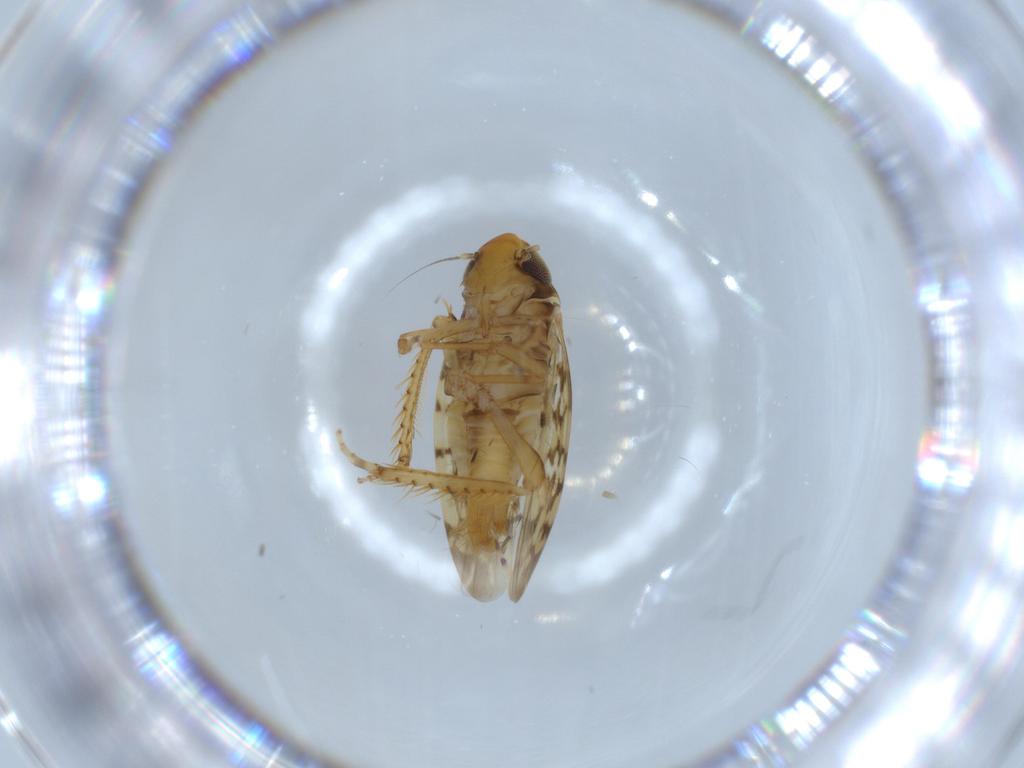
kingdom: Animalia
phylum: Arthropoda
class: Insecta
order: Hemiptera
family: Cicadellidae
